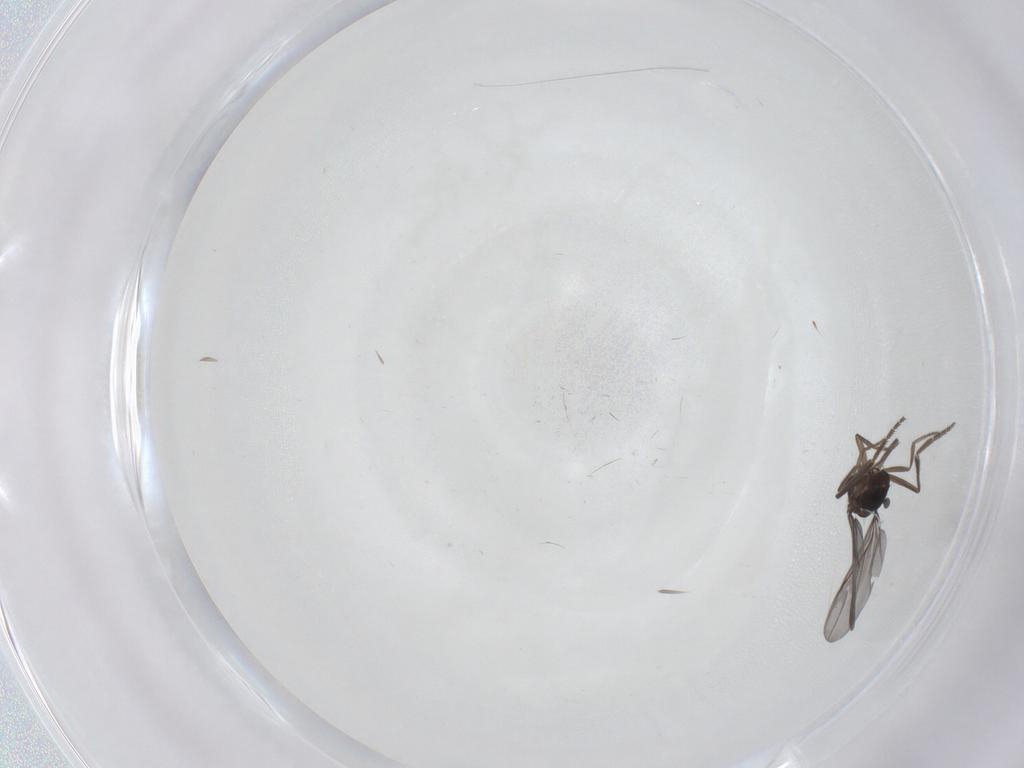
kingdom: Animalia
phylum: Arthropoda
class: Insecta
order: Diptera
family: Phoridae
